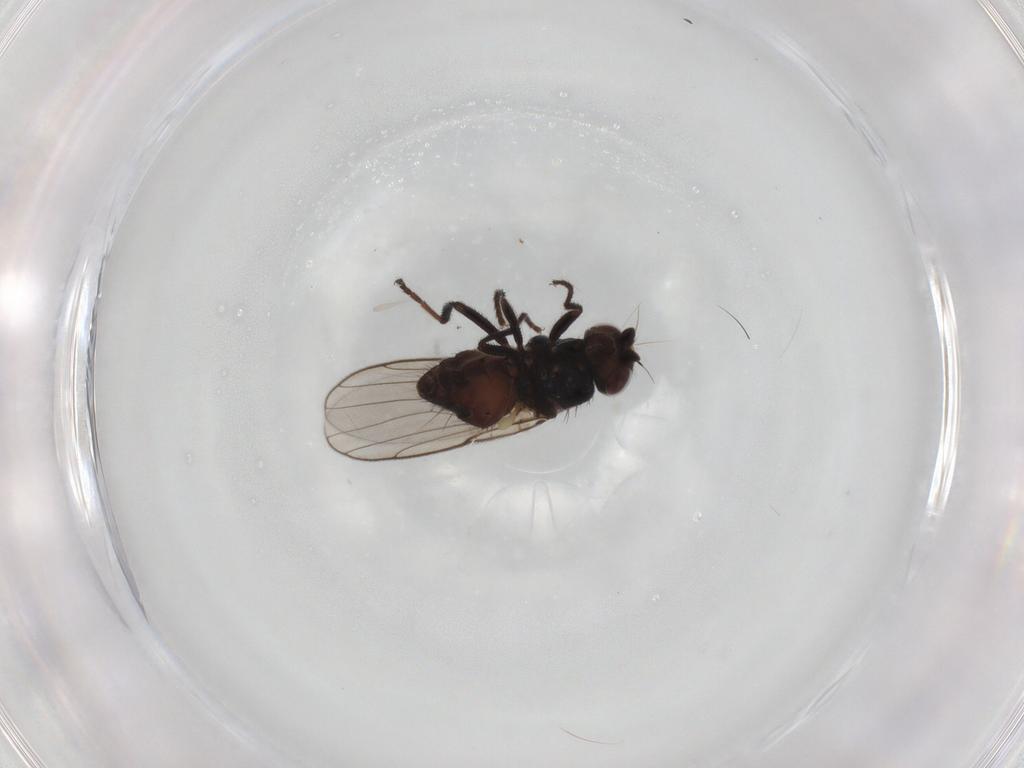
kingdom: Animalia
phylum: Arthropoda
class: Insecta
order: Diptera
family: Chloropidae
